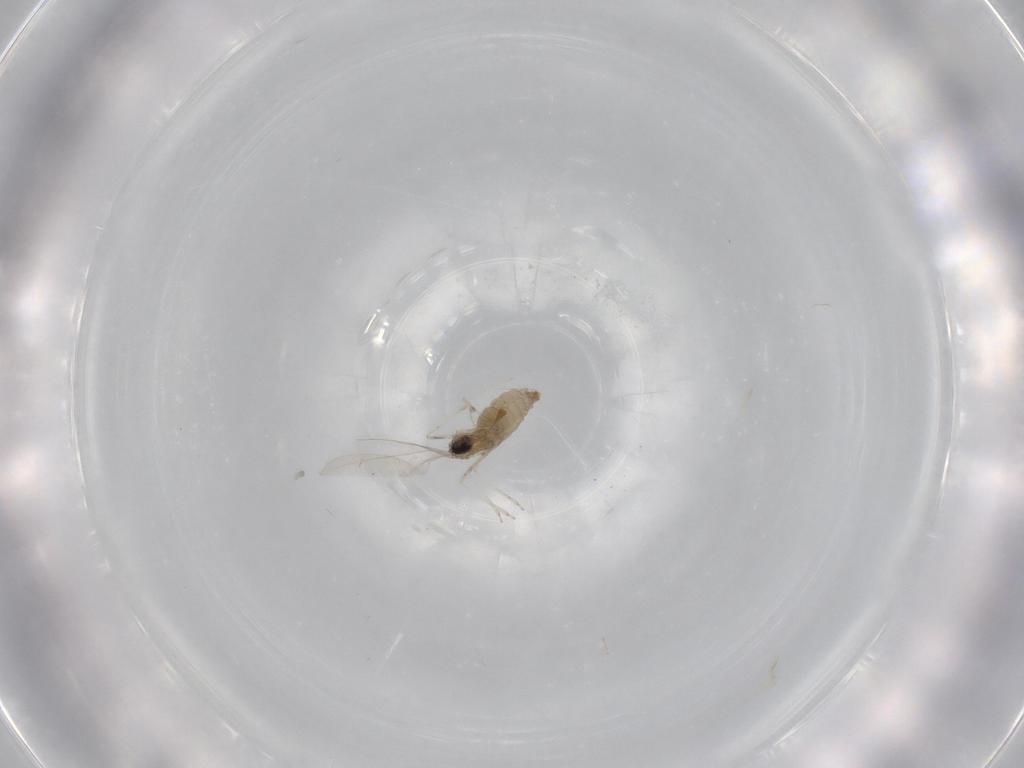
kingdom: Animalia
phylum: Arthropoda
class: Insecta
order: Diptera
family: Cecidomyiidae
